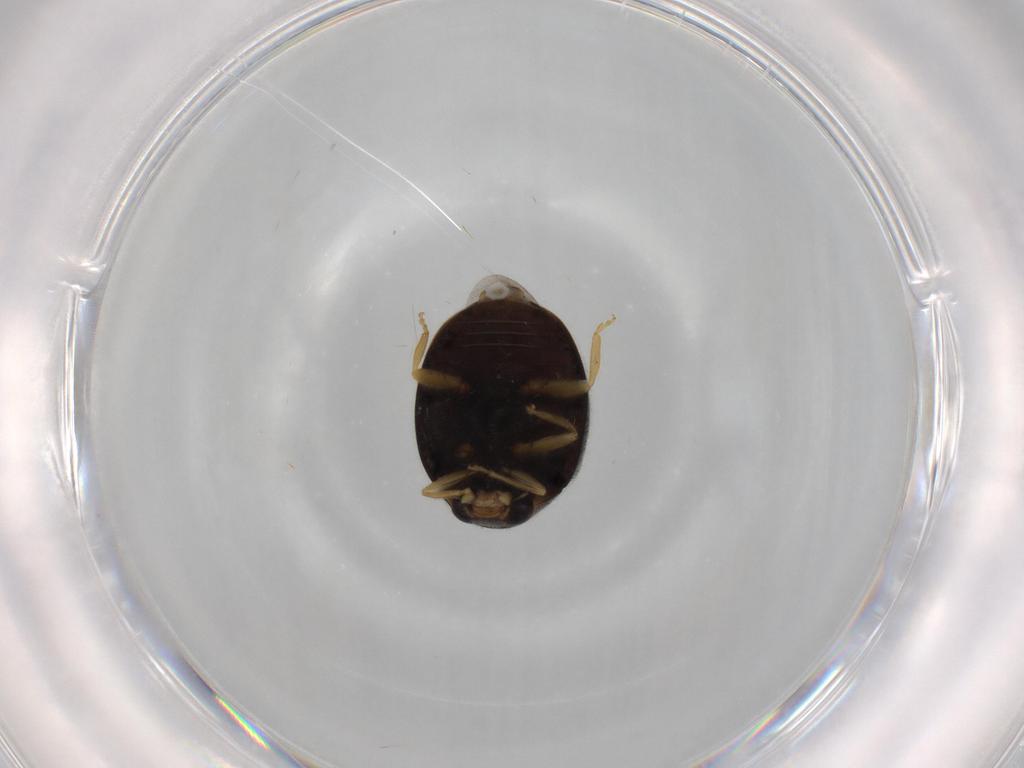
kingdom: Animalia
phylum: Arthropoda
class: Insecta
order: Coleoptera
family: Coccinellidae
